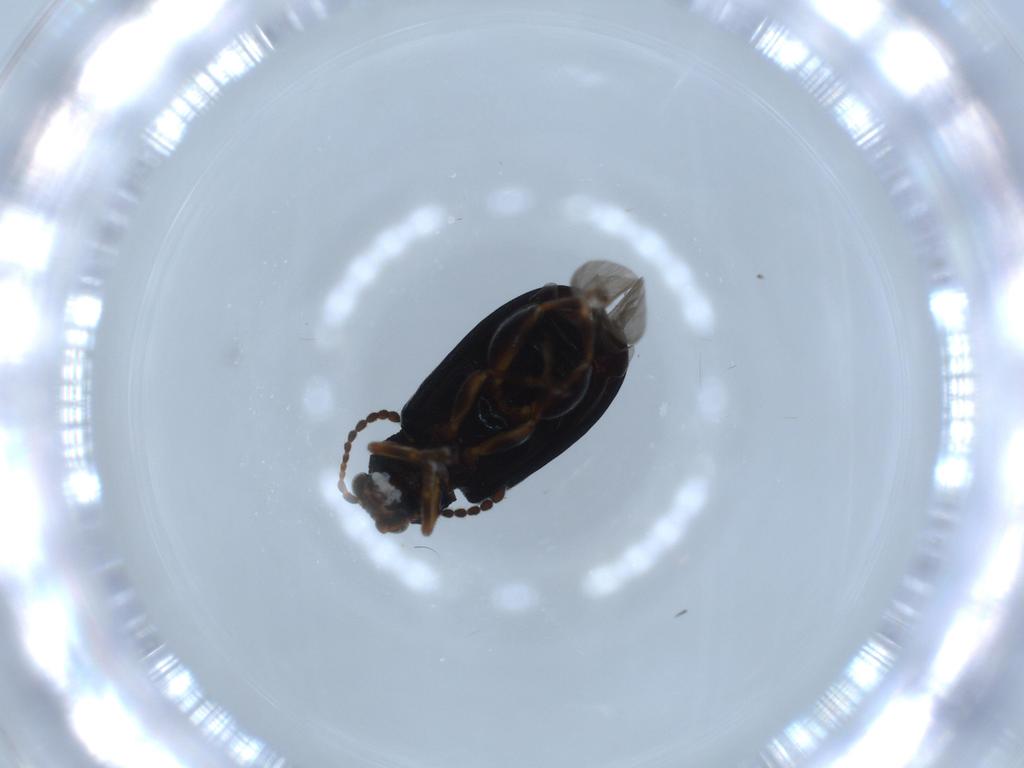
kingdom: Animalia
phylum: Arthropoda
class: Insecta
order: Coleoptera
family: Chrysomelidae
